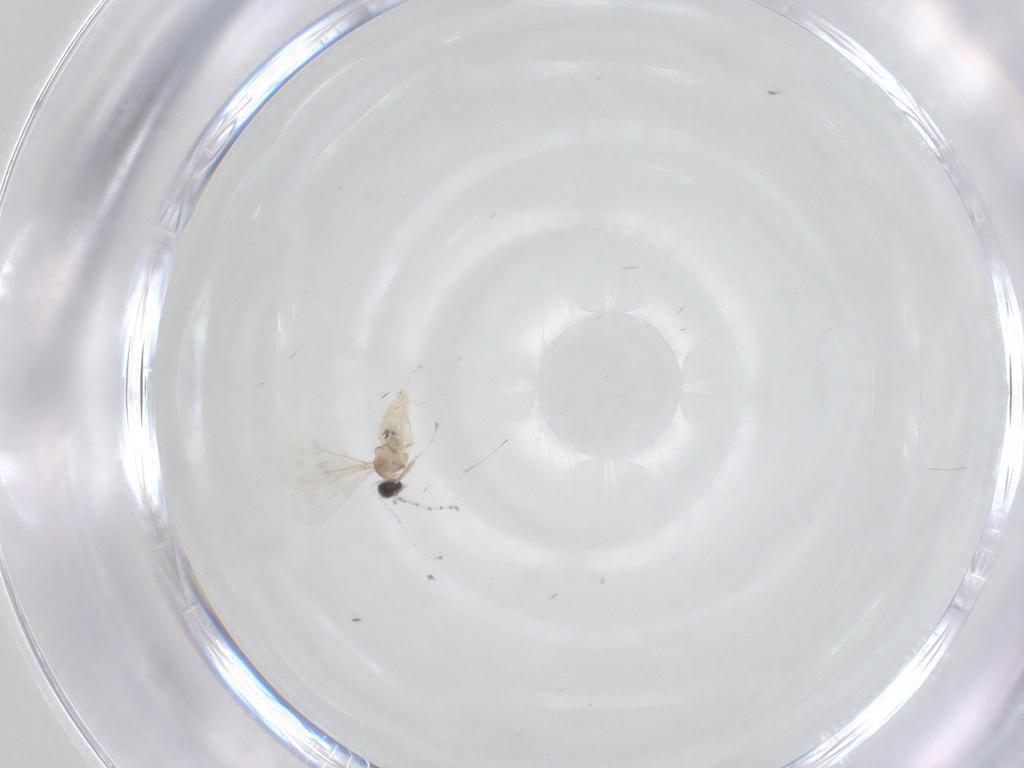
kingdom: Animalia
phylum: Arthropoda
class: Insecta
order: Diptera
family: Cecidomyiidae
